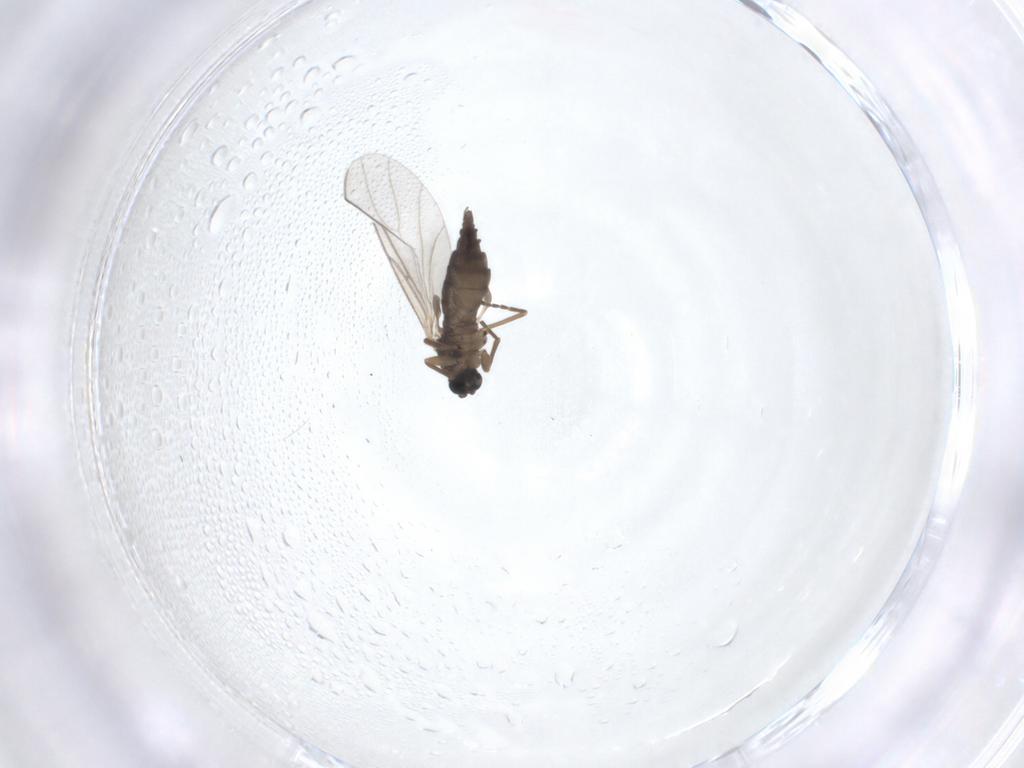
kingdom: Animalia
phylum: Arthropoda
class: Insecta
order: Diptera
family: Sciaridae
